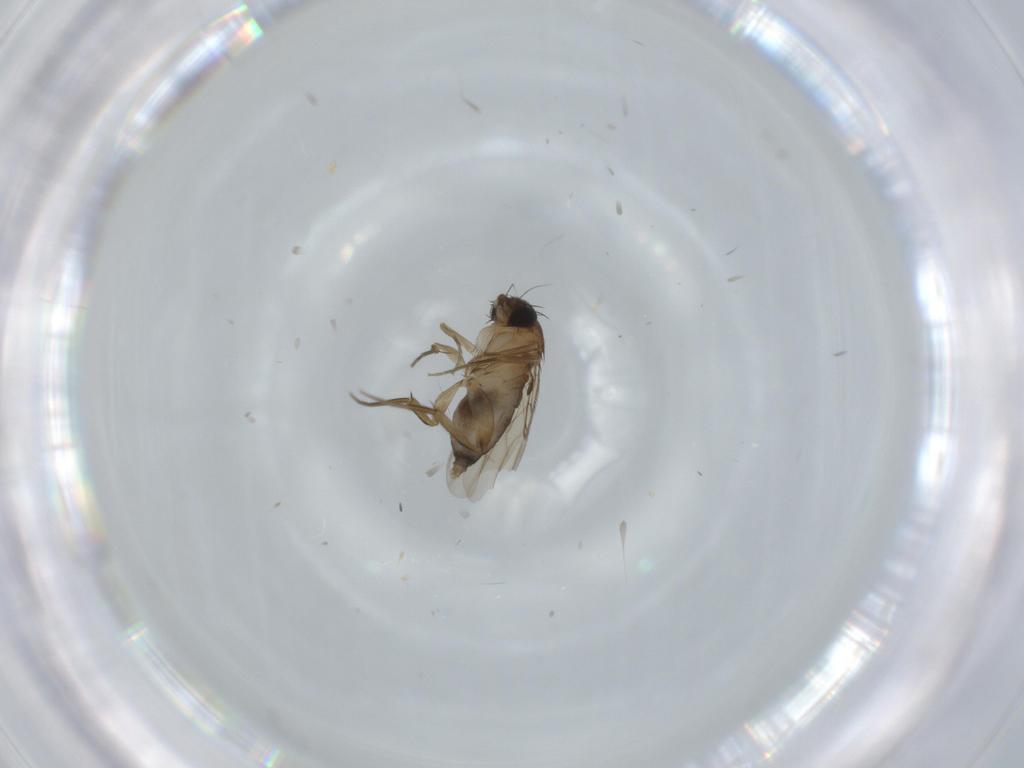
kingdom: Animalia
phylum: Arthropoda
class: Insecta
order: Diptera
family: Phoridae
